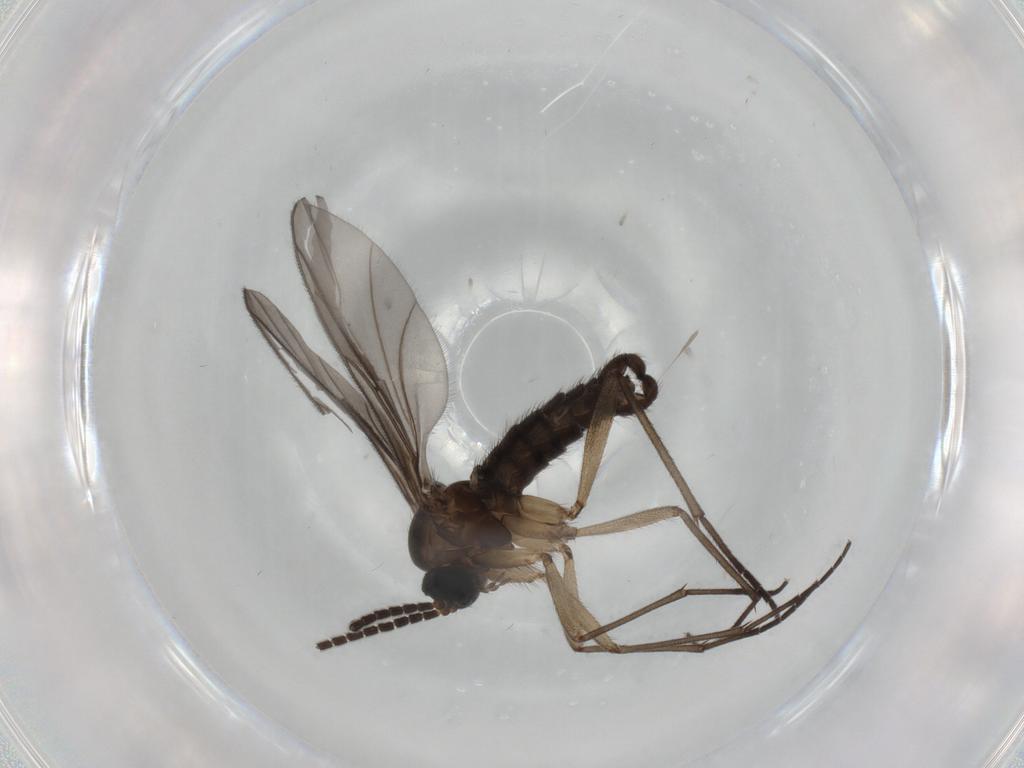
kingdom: Animalia
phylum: Arthropoda
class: Insecta
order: Diptera
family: Sciaridae
